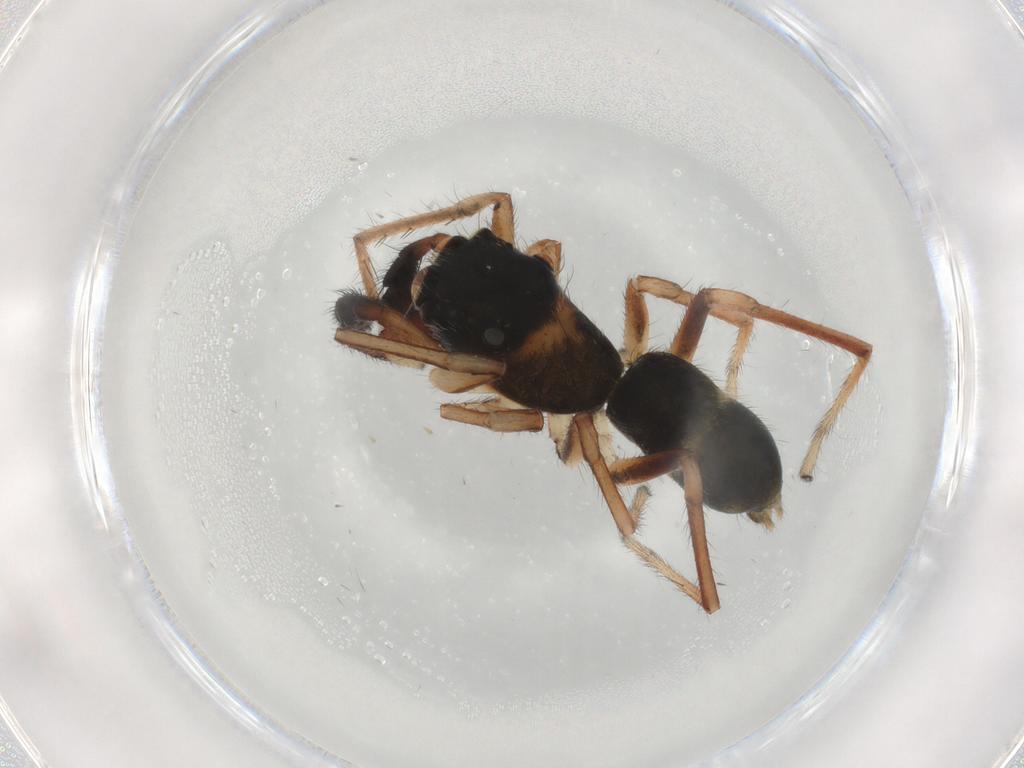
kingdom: Animalia
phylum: Arthropoda
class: Arachnida
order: Araneae
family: Salticidae
